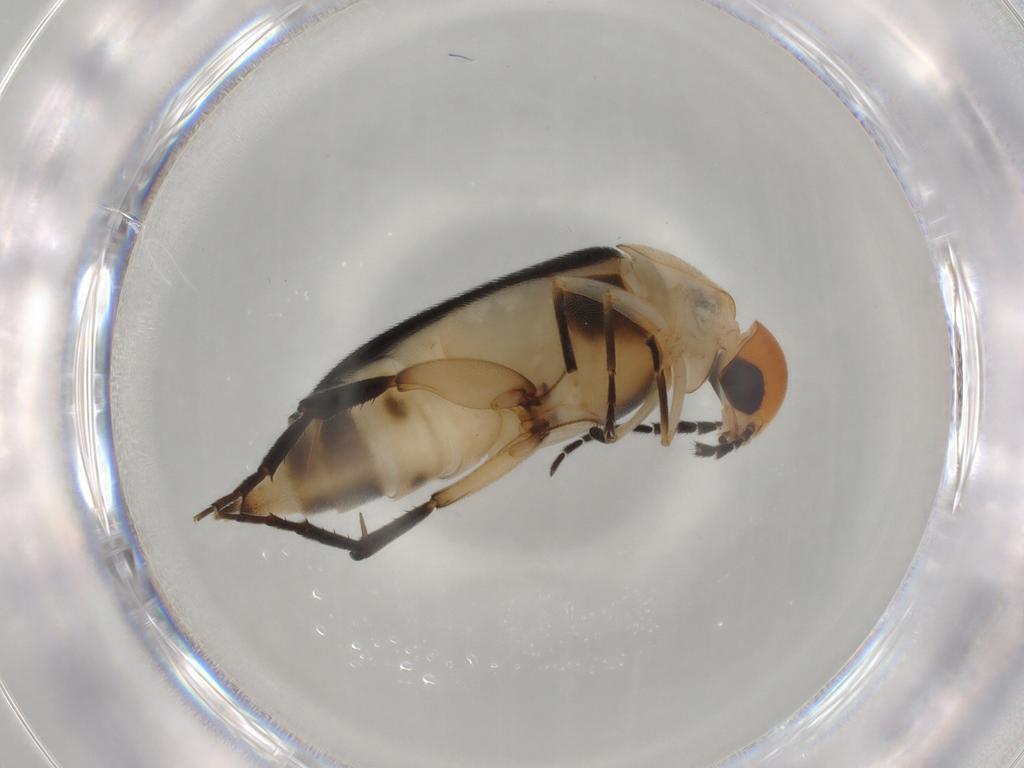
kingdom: Animalia
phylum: Arthropoda
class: Insecta
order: Coleoptera
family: Mordellidae
